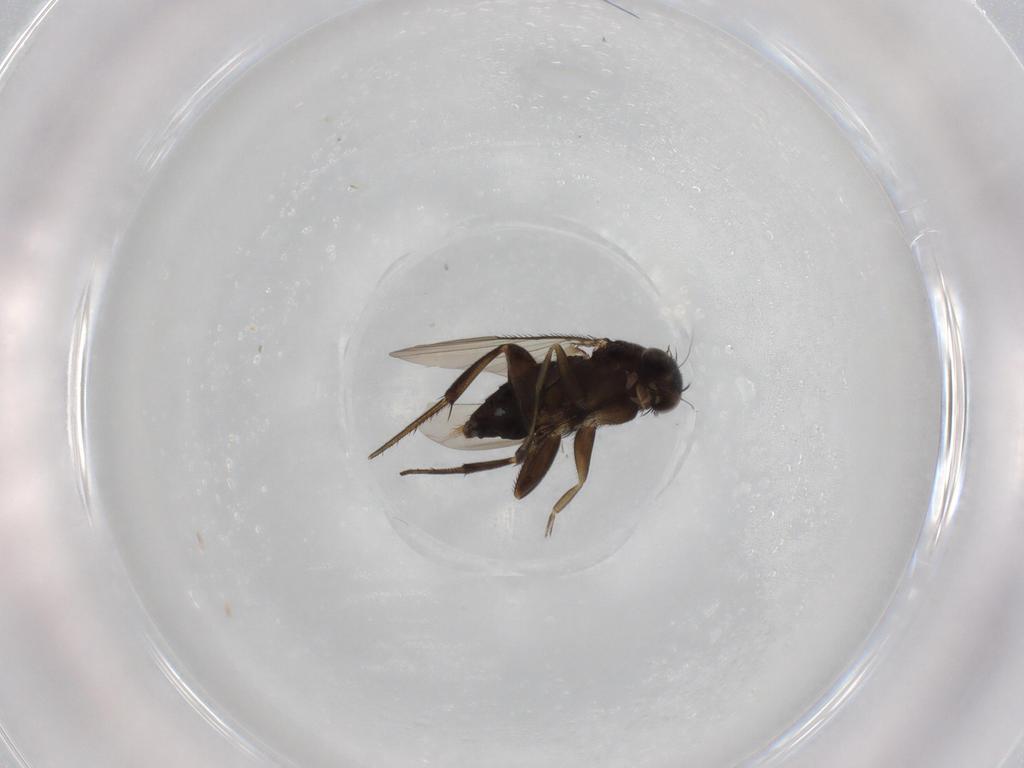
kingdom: Animalia
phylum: Arthropoda
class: Insecta
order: Diptera
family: Phoridae
